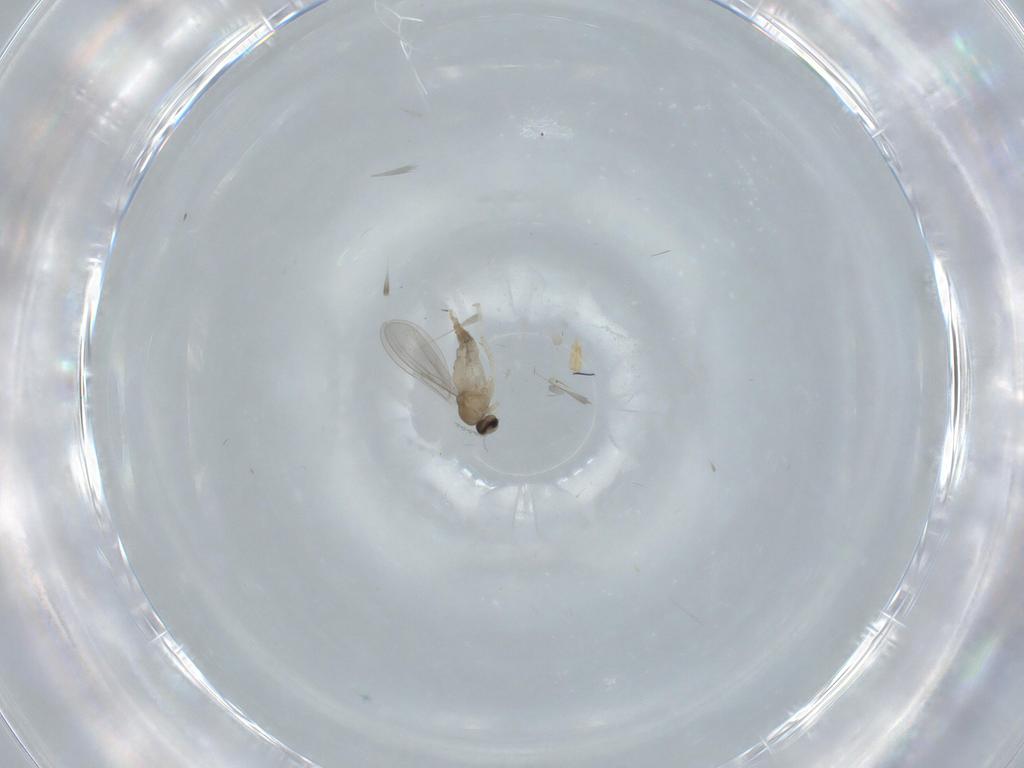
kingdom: Animalia
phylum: Arthropoda
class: Insecta
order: Diptera
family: Cecidomyiidae
